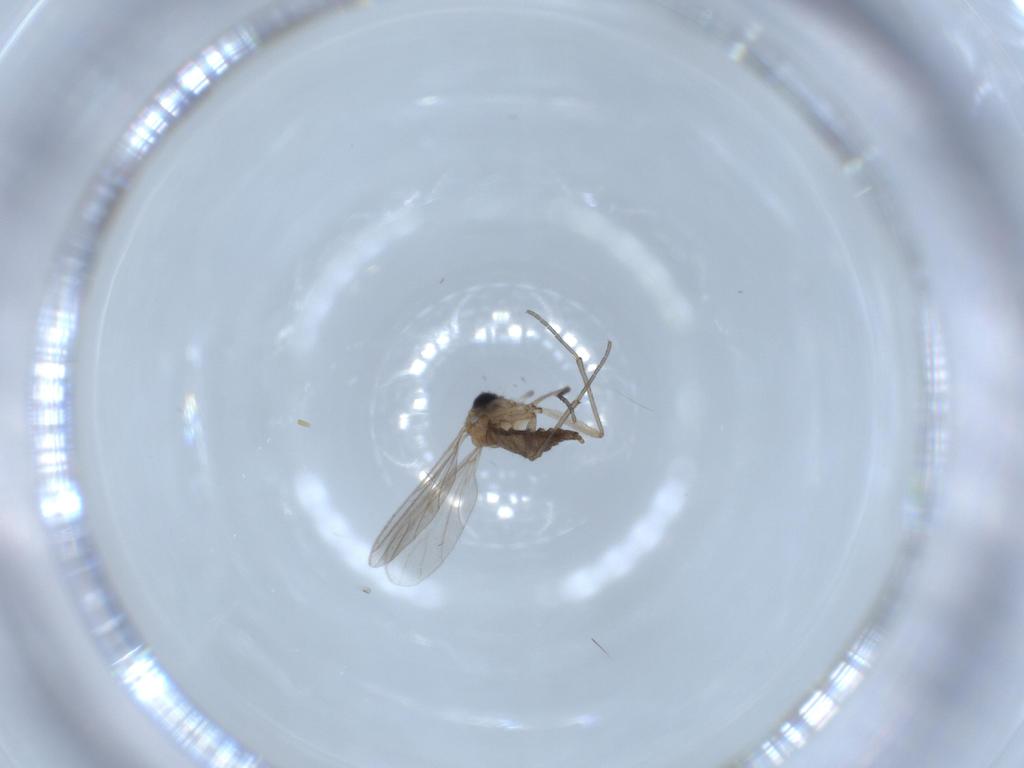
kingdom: Animalia
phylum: Arthropoda
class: Insecta
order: Diptera
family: Sciaridae
